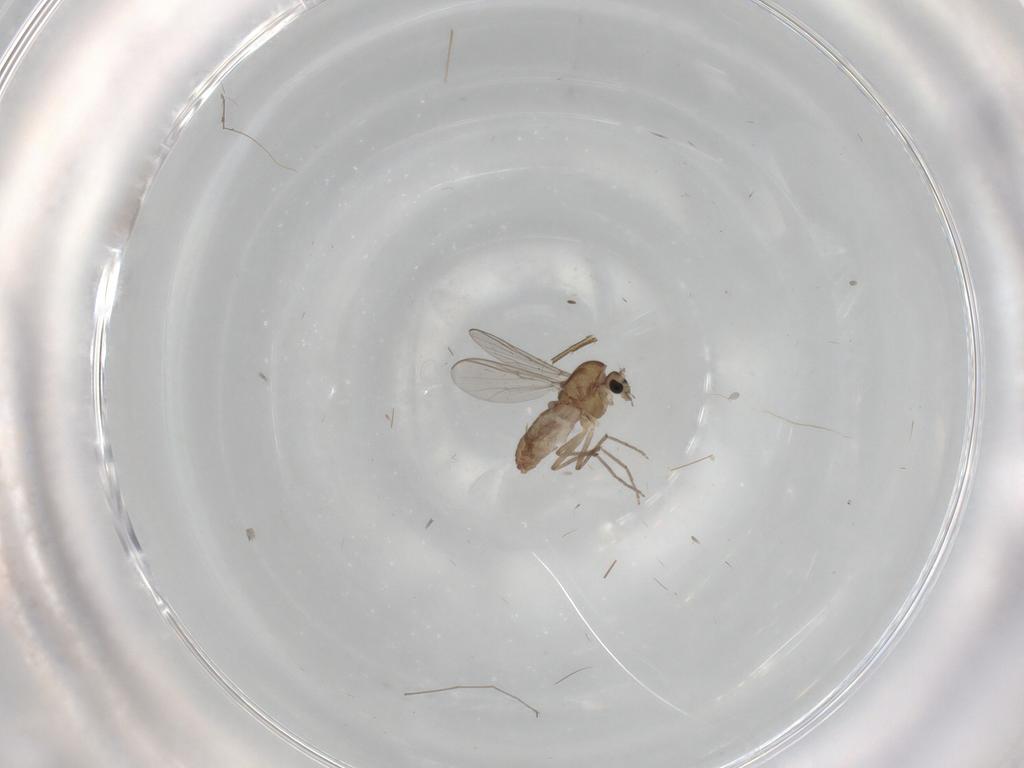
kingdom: Animalia
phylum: Arthropoda
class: Insecta
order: Diptera
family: Chironomidae
